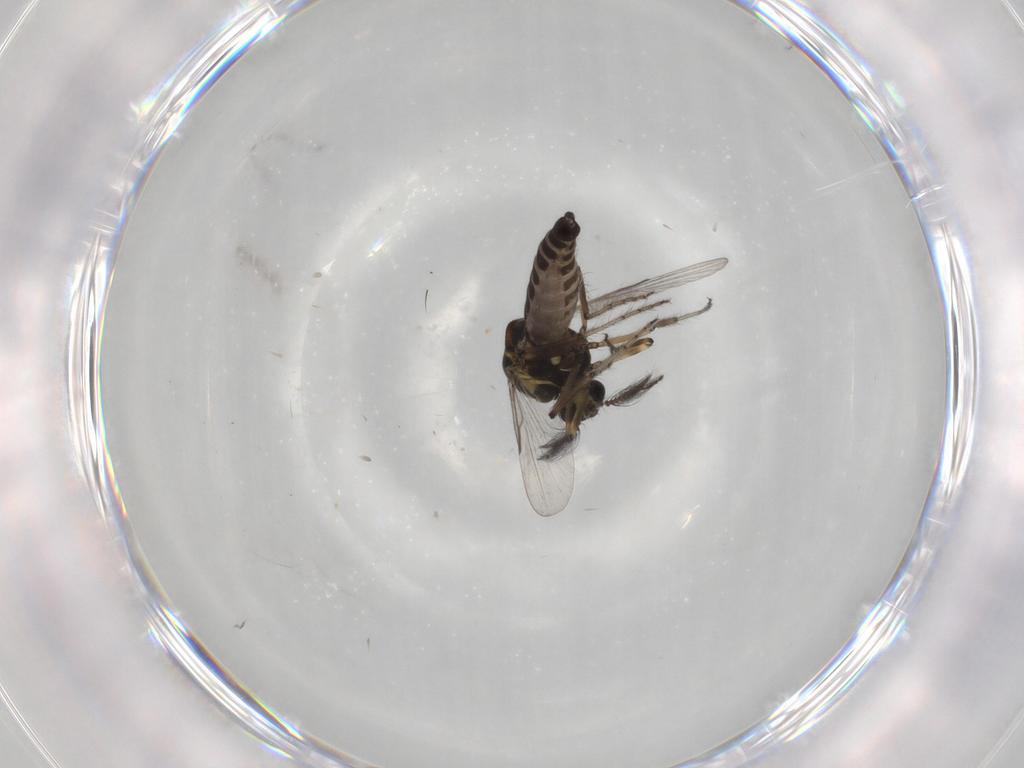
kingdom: Animalia
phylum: Arthropoda
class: Insecta
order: Diptera
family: Ceratopogonidae
